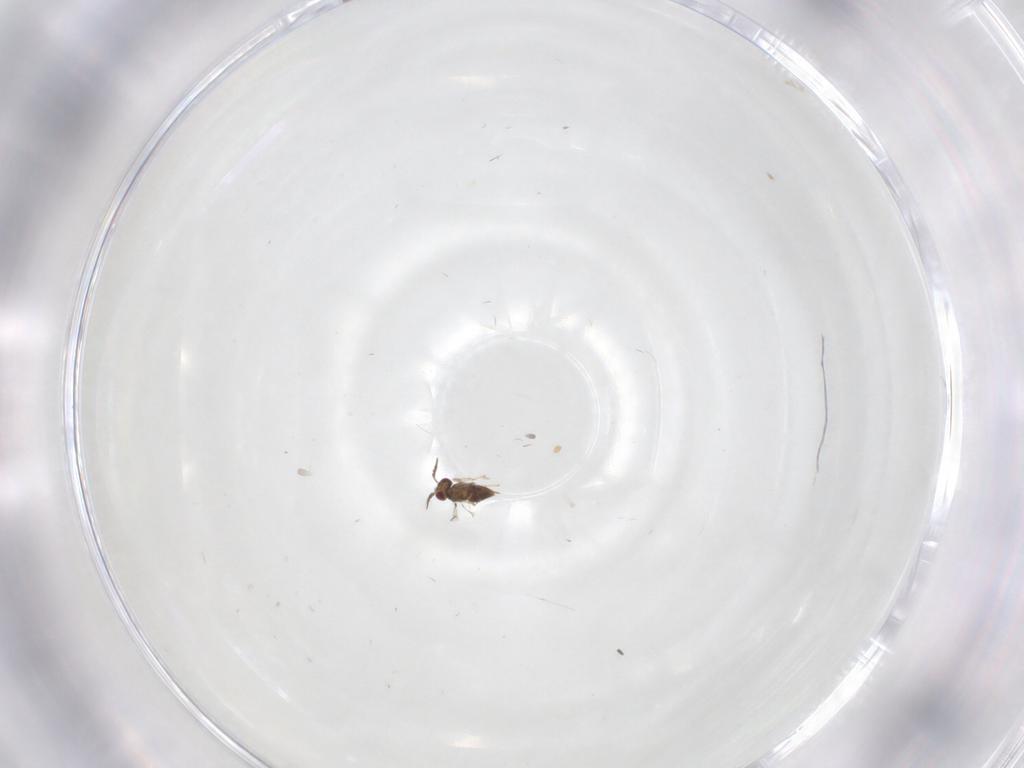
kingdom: Animalia
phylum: Arthropoda
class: Insecta
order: Hymenoptera
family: Trichogrammatidae
